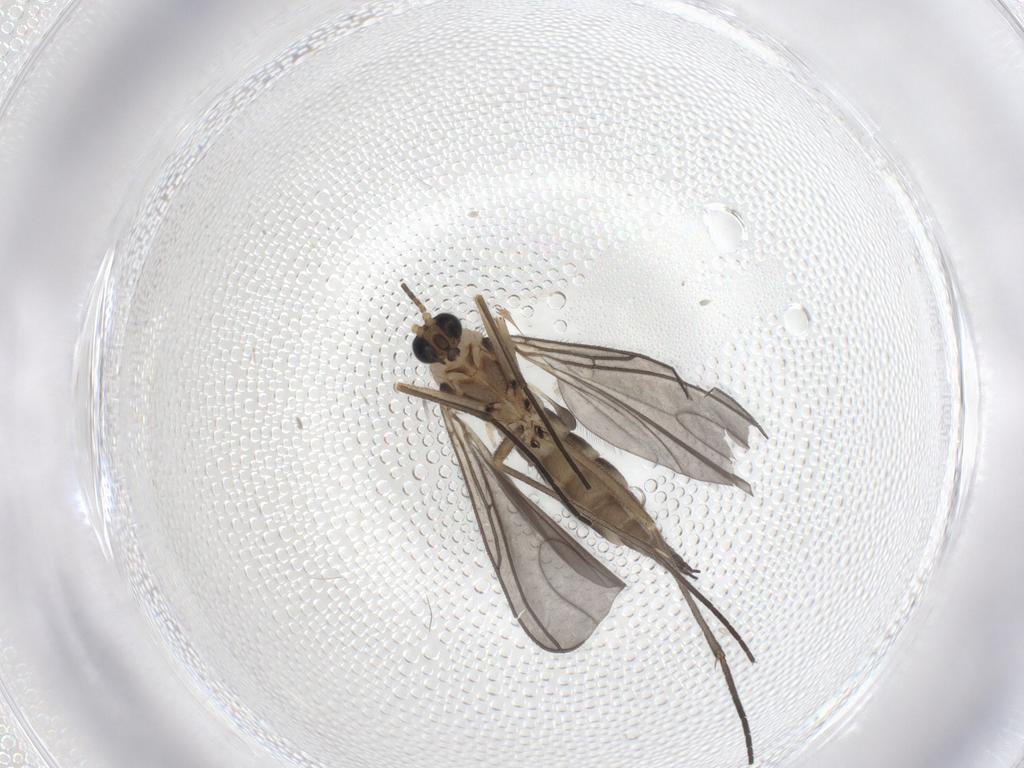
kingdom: Animalia
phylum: Arthropoda
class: Insecta
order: Diptera
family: Sciaridae
